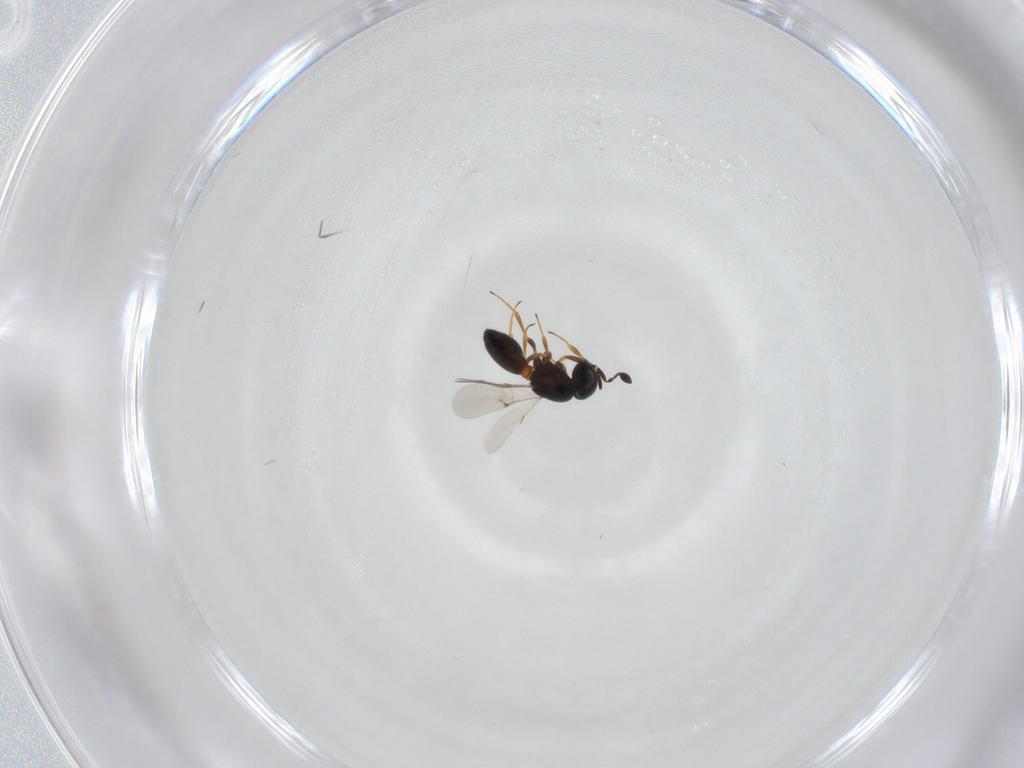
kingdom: Animalia
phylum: Arthropoda
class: Insecta
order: Hymenoptera
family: Scelionidae
